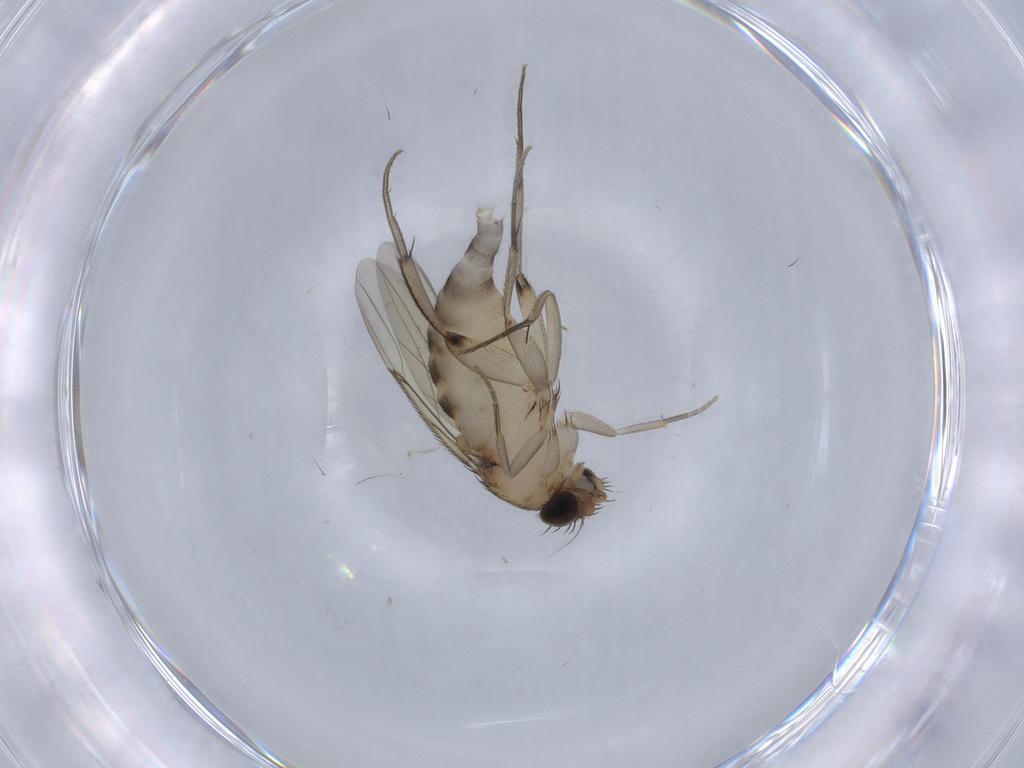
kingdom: Animalia
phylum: Arthropoda
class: Insecta
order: Diptera
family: Phoridae
